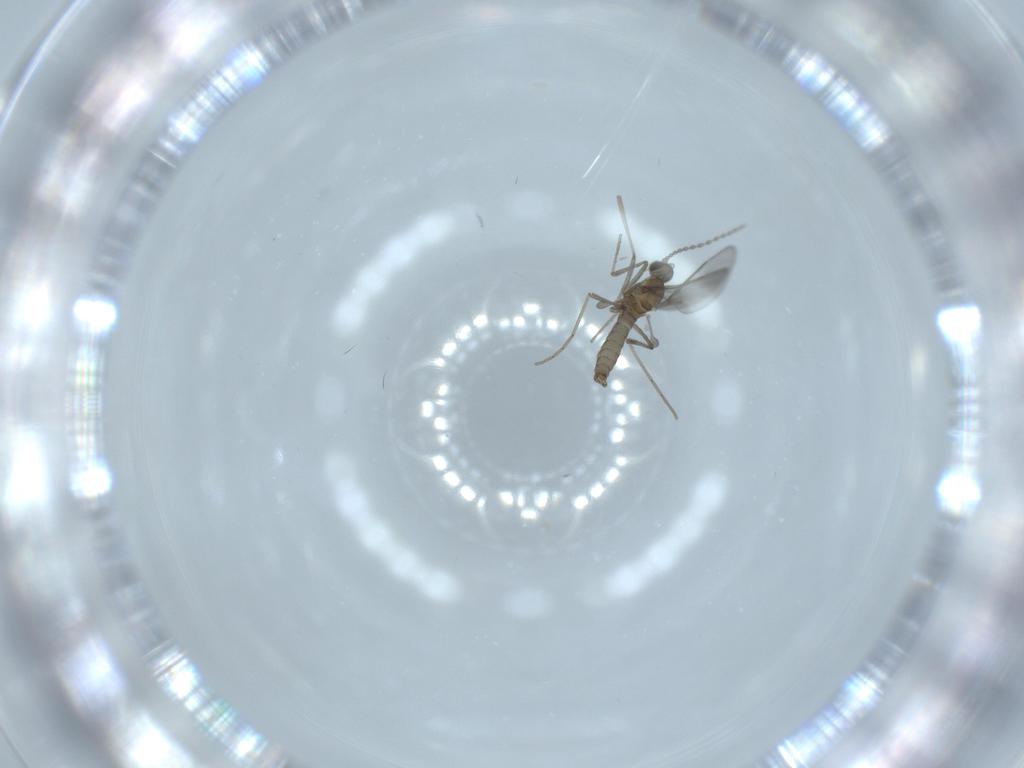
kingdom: Animalia
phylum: Arthropoda
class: Insecta
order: Diptera
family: Cecidomyiidae
